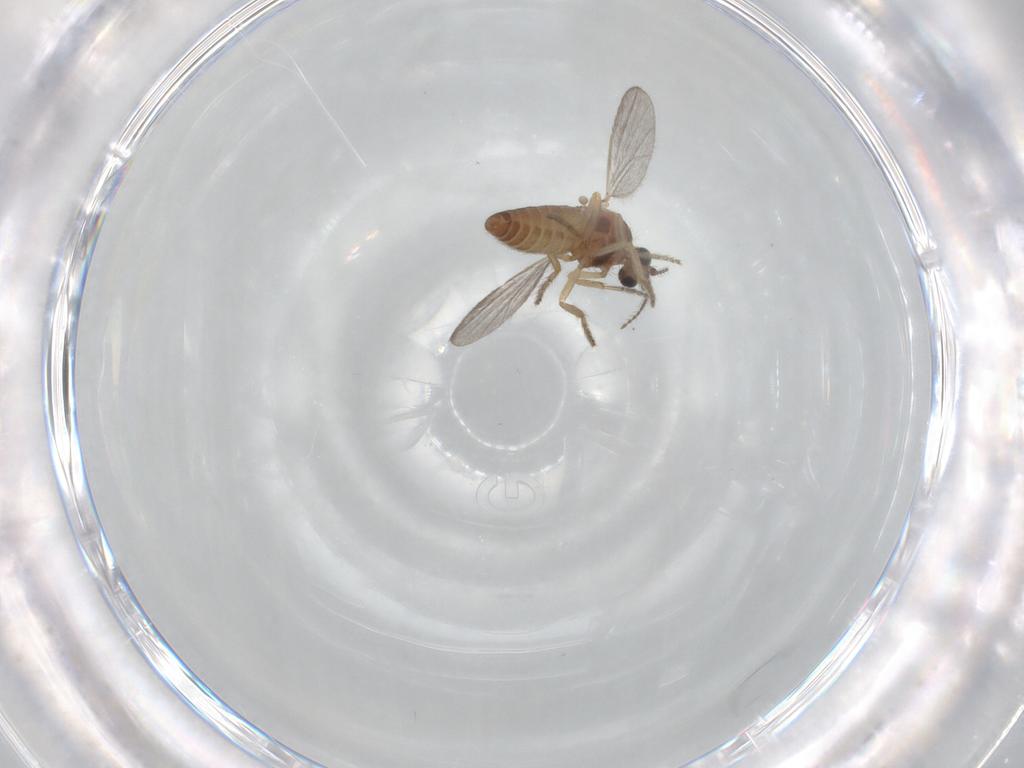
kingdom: Animalia
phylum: Arthropoda
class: Insecta
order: Diptera
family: Ceratopogonidae
